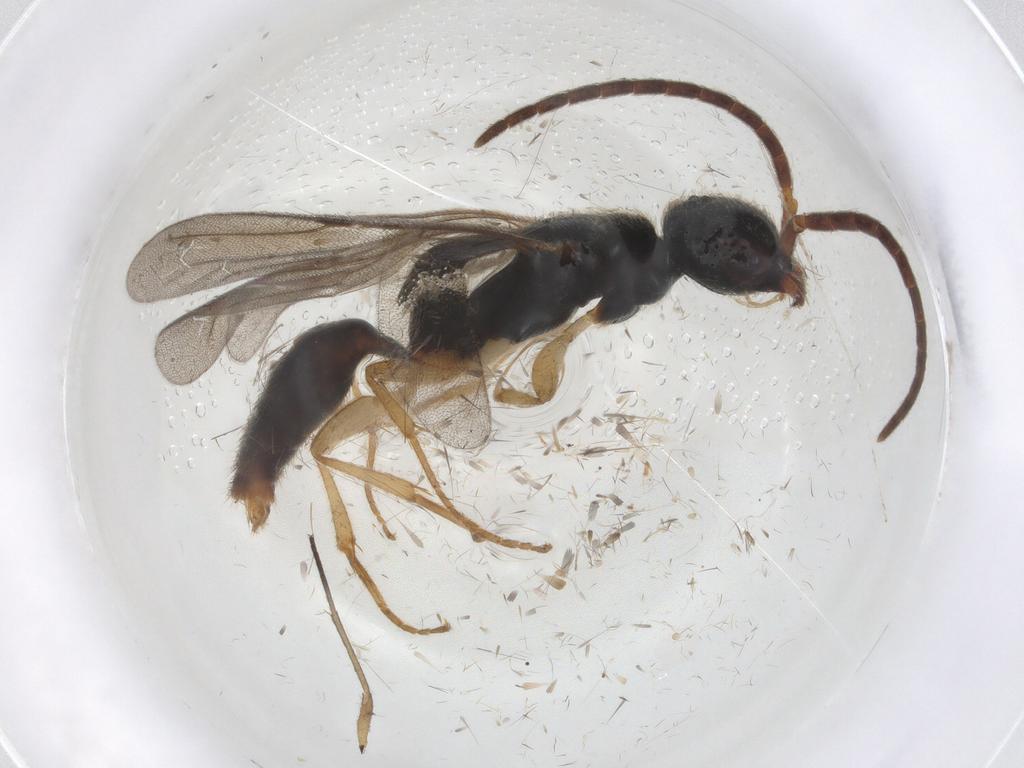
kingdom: Animalia
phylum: Arthropoda
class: Insecta
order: Hymenoptera
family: Bethylidae
